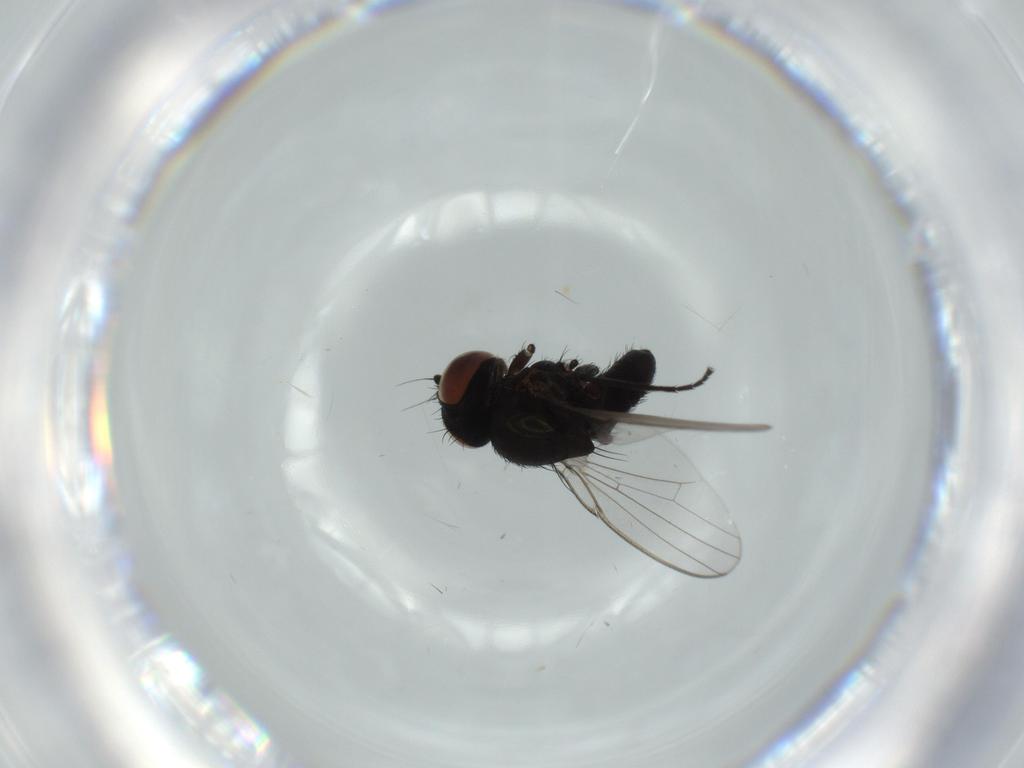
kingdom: Animalia
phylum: Arthropoda
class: Insecta
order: Diptera
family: Milichiidae
